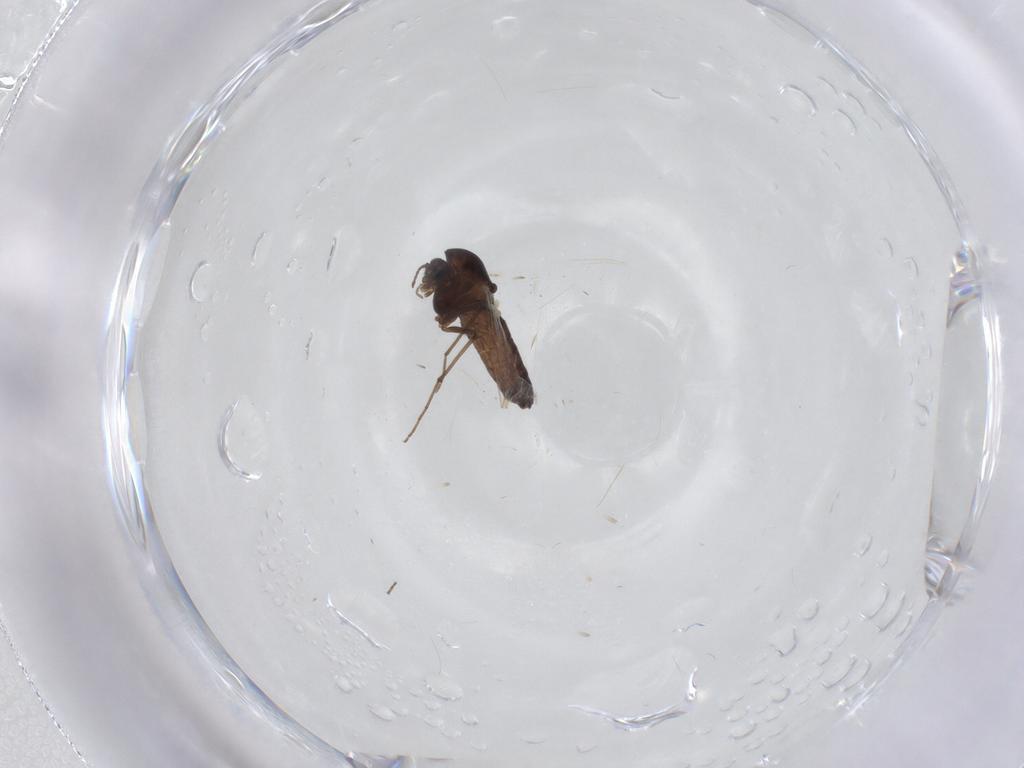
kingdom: Animalia
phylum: Arthropoda
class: Insecta
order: Diptera
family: Chironomidae
